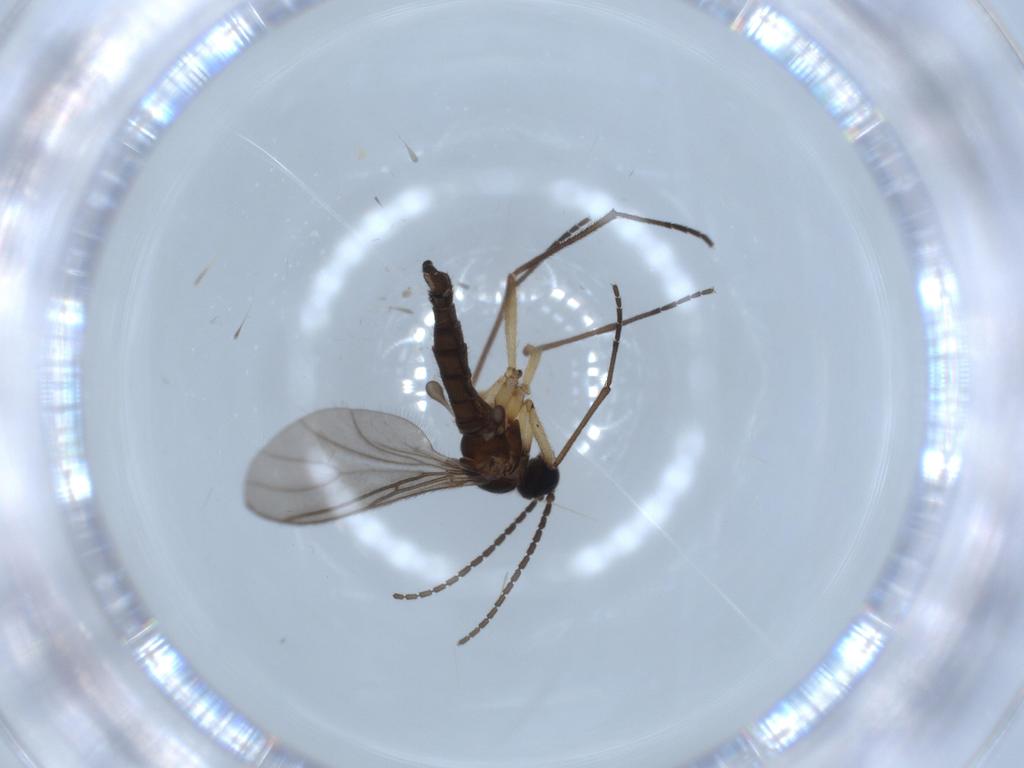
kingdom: Animalia
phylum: Arthropoda
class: Insecta
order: Diptera
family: Sciaridae
